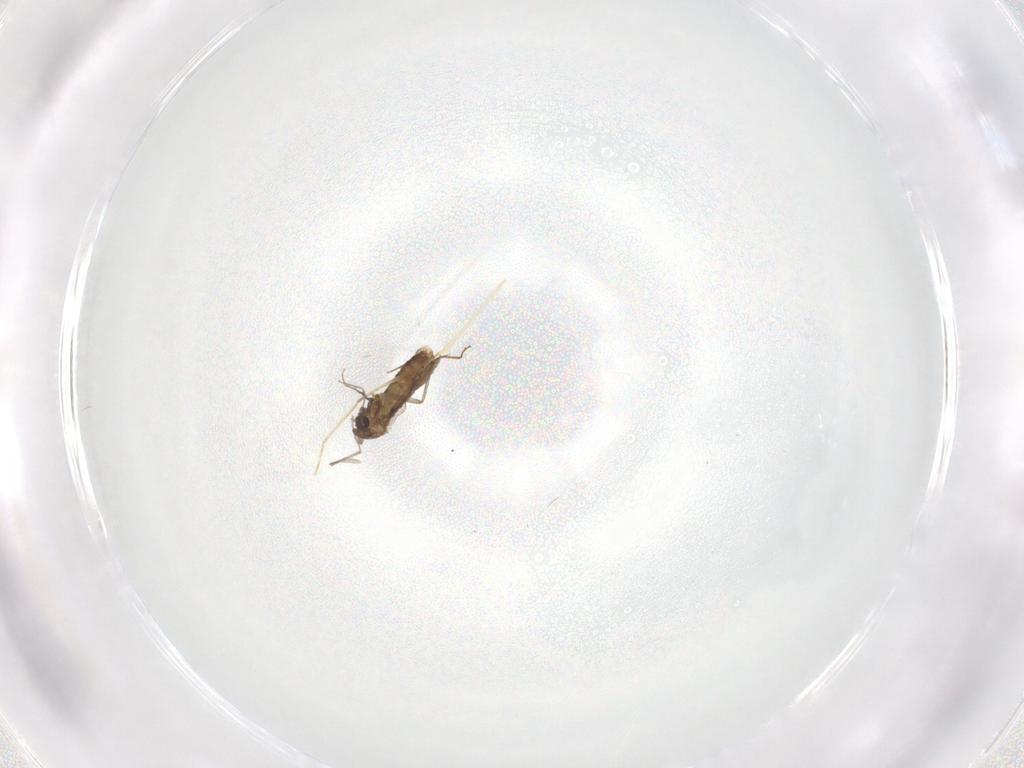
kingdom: Animalia
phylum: Arthropoda
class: Insecta
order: Diptera
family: Chironomidae
